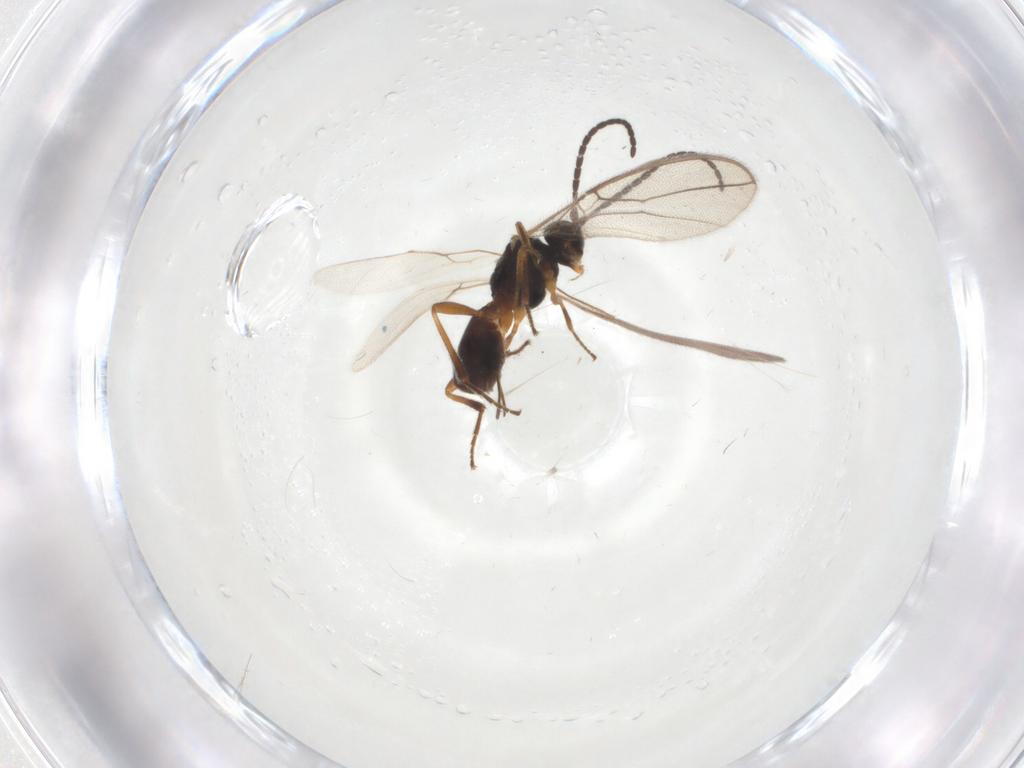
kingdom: Animalia
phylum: Arthropoda
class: Insecta
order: Hymenoptera
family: Braconidae
